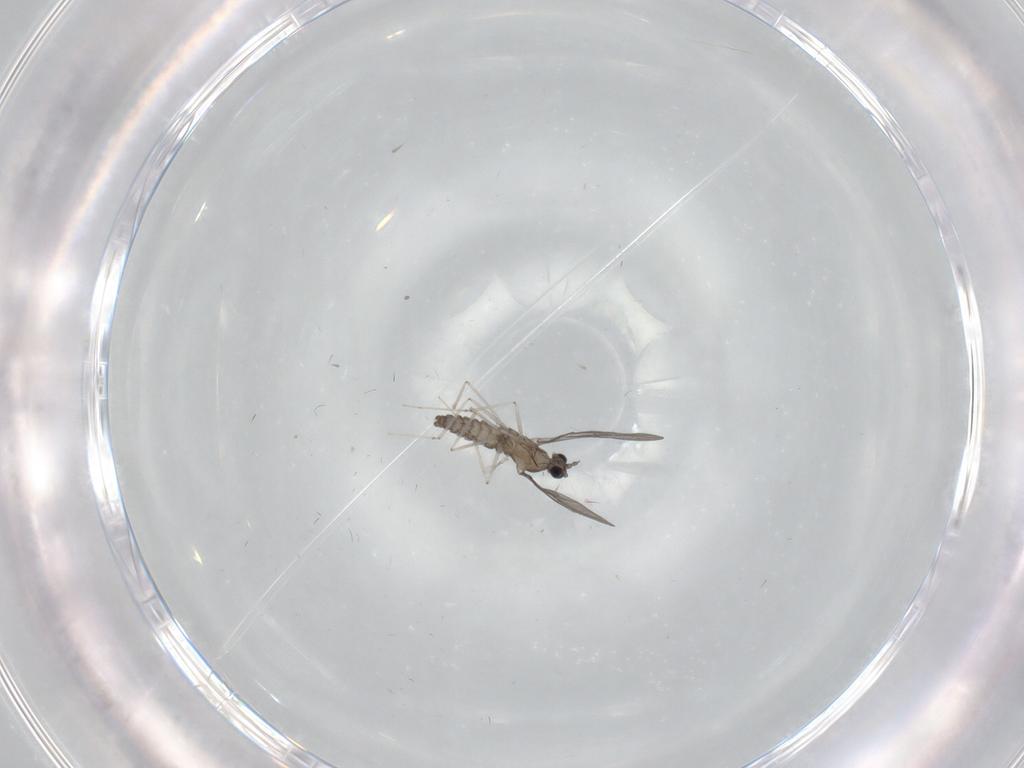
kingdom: Animalia
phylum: Arthropoda
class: Insecta
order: Diptera
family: Cecidomyiidae
